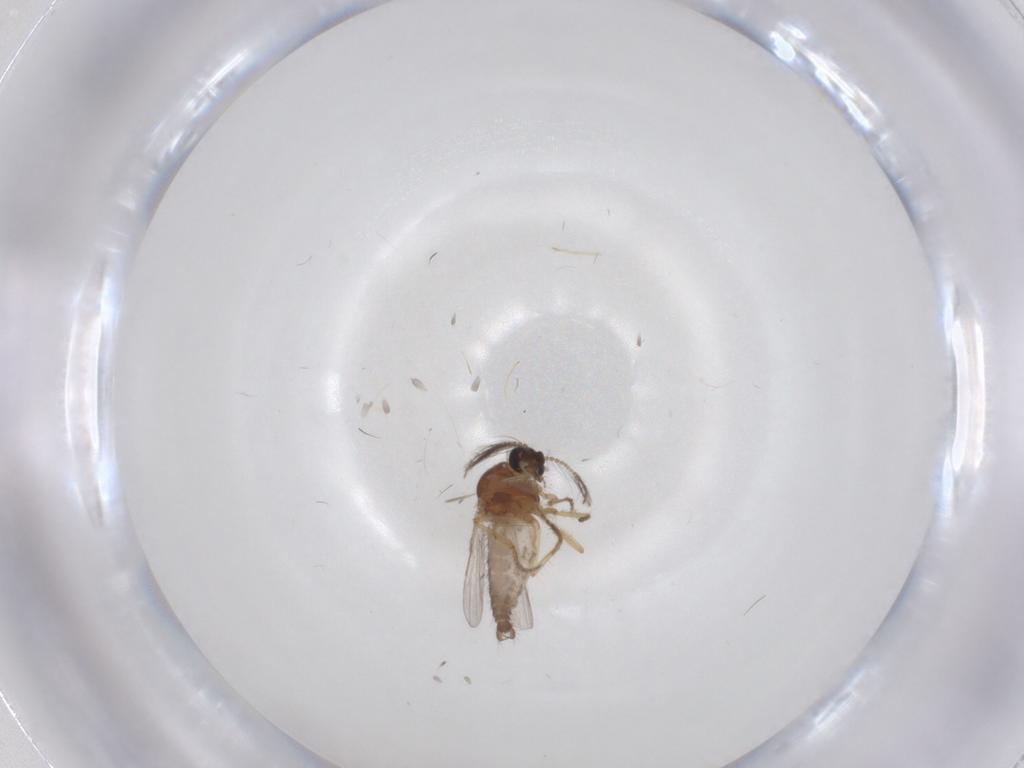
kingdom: Animalia
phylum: Arthropoda
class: Insecta
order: Diptera
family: Ceratopogonidae
